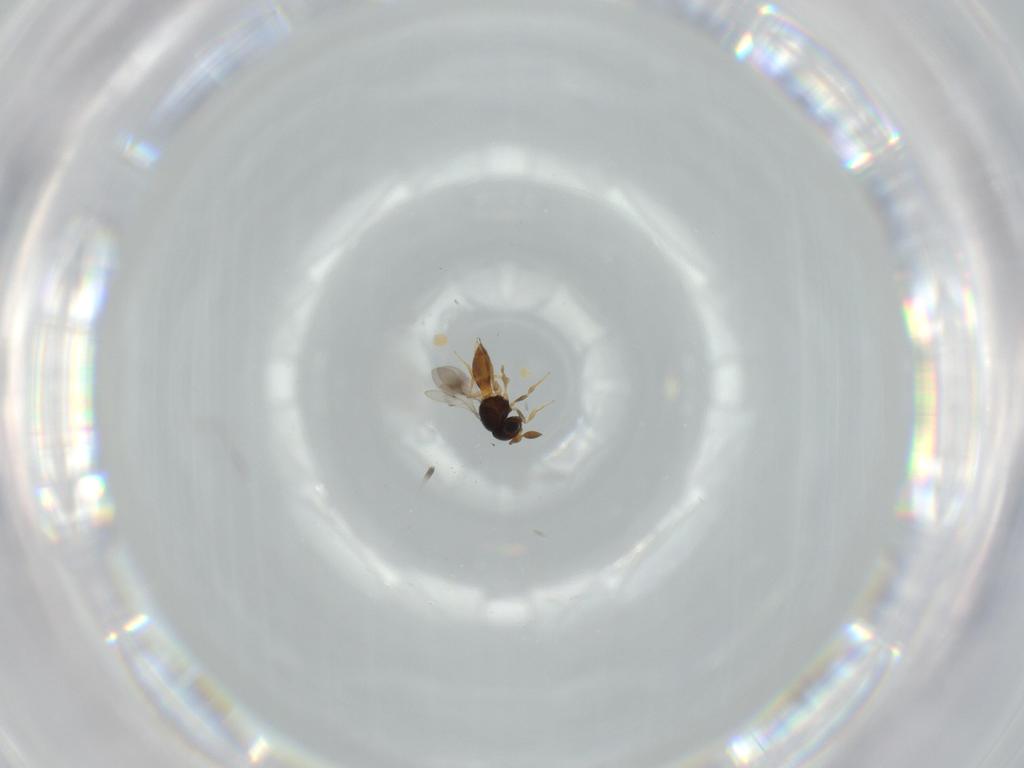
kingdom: Animalia
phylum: Arthropoda
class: Insecta
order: Hymenoptera
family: Scelionidae
